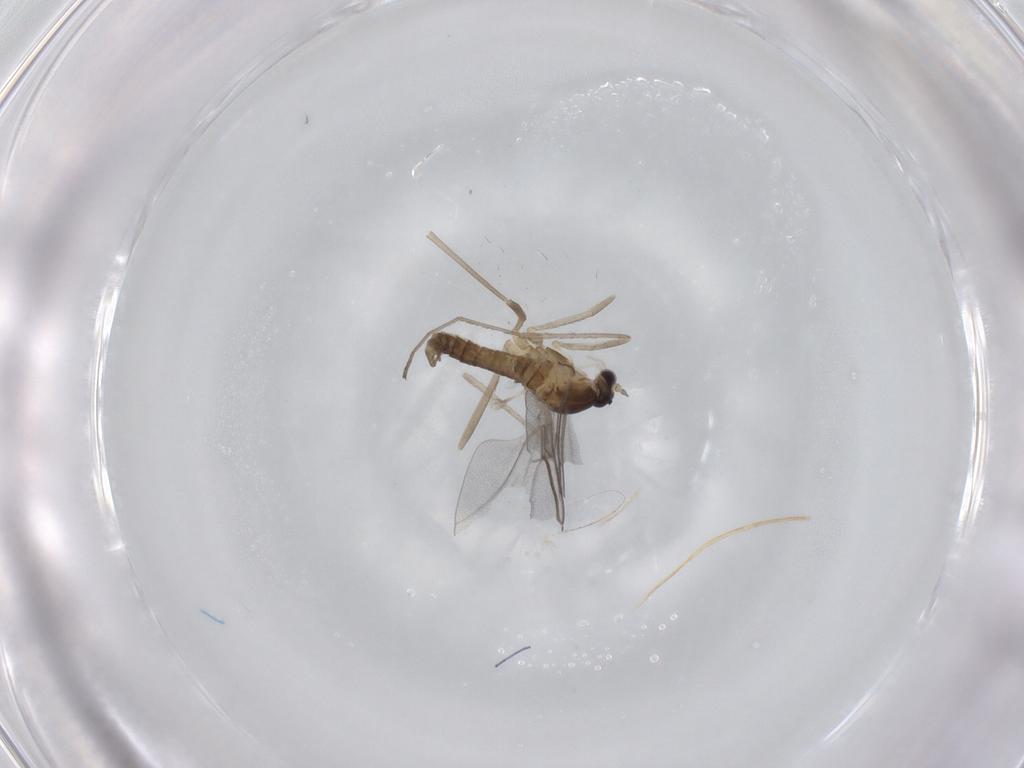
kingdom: Animalia
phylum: Arthropoda
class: Insecta
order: Diptera
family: Cecidomyiidae
